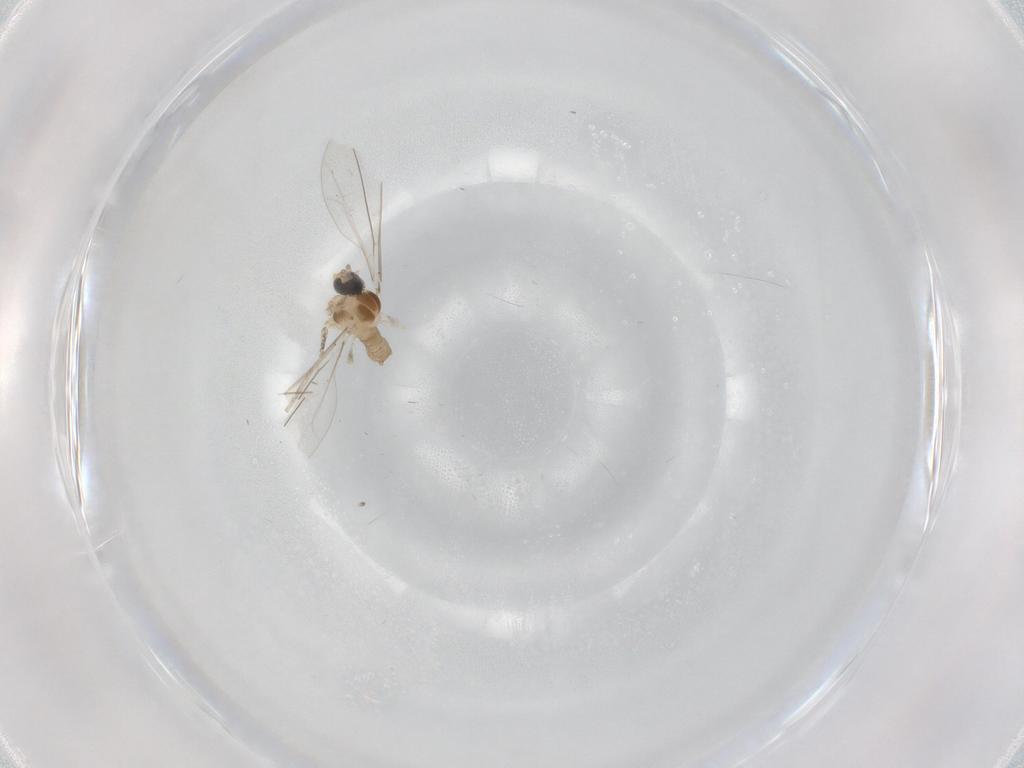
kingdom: Animalia
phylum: Arthropoda
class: Insecta
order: Diptera
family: Cecidomyiidae
